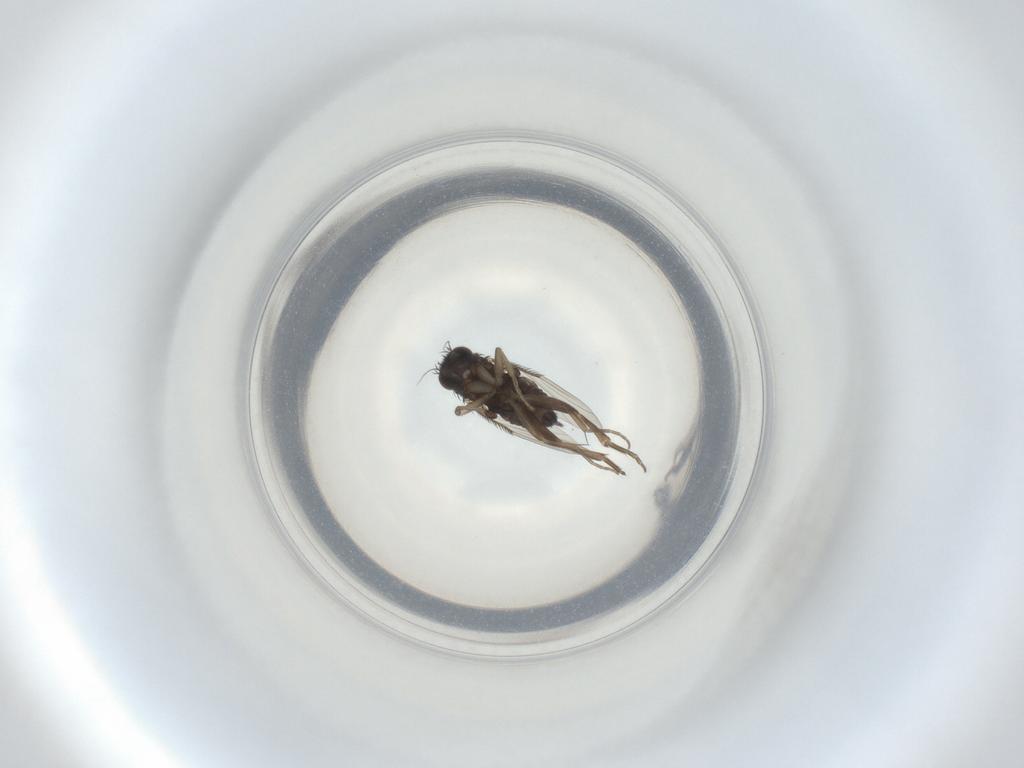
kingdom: Animalia
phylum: Arthropoda
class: Insecta
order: Diptera
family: Phoridae
